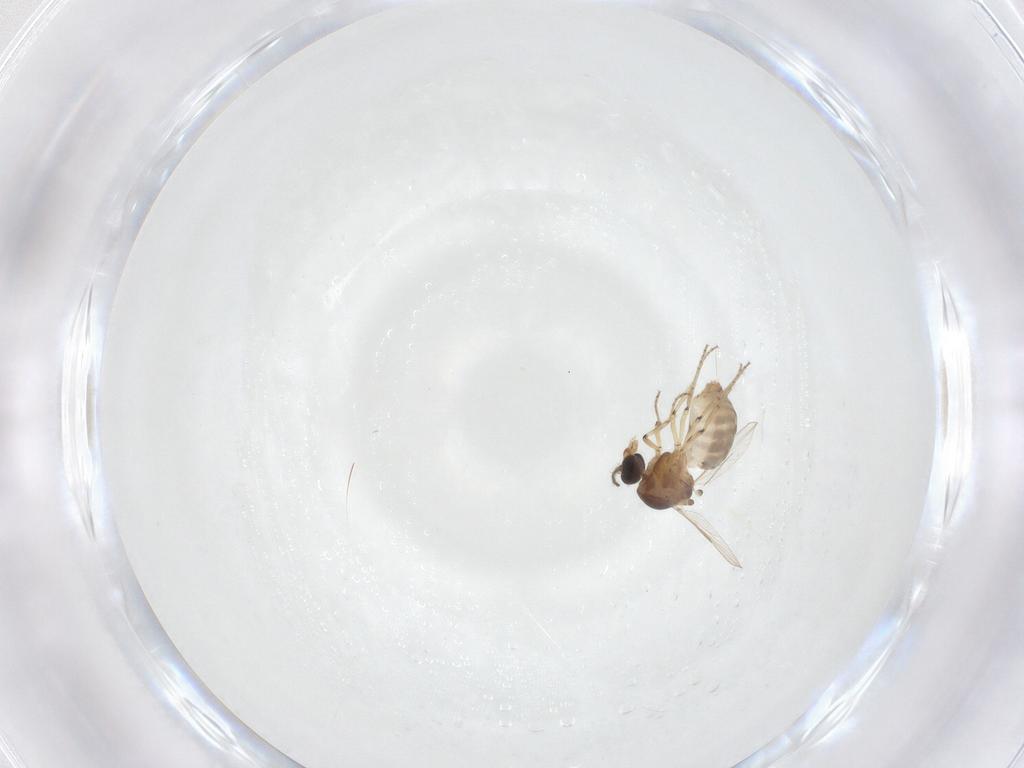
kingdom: Animalia
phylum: Arthropoda
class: Insecta
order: Diptera
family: Ceratopogonidae
